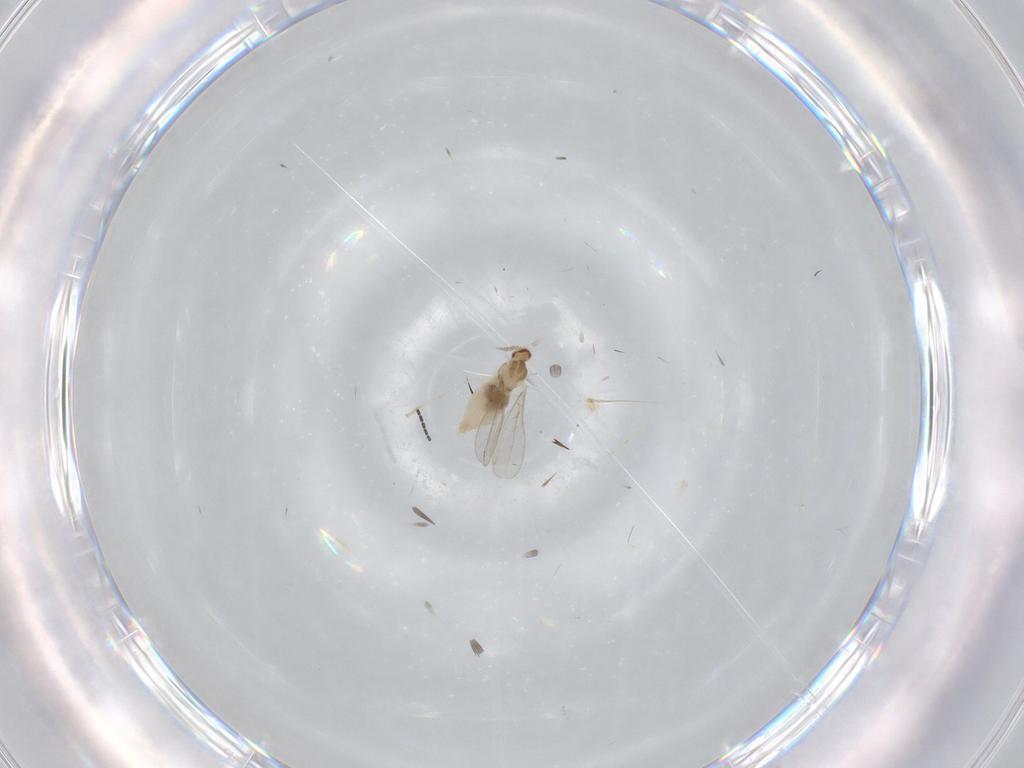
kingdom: Animalia
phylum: Arthropoda
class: Insecta
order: Diptera
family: Cecidomyiidae
